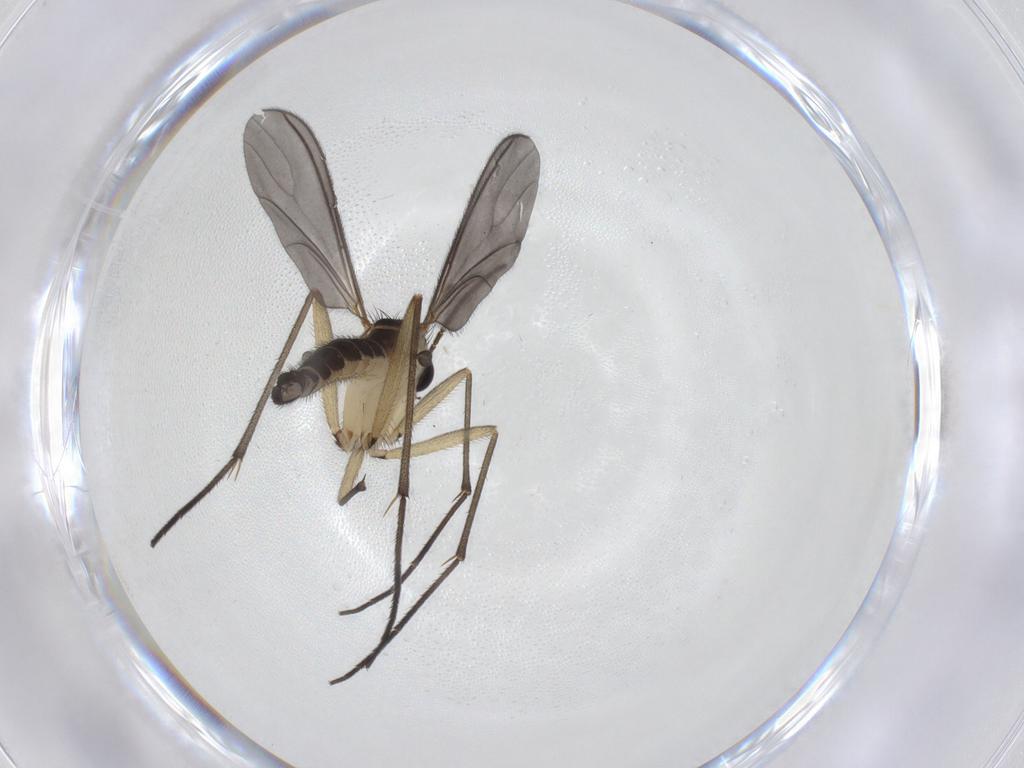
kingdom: Animalia
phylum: Arthropoda
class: Insecta
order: Diptera
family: Sciaridae
